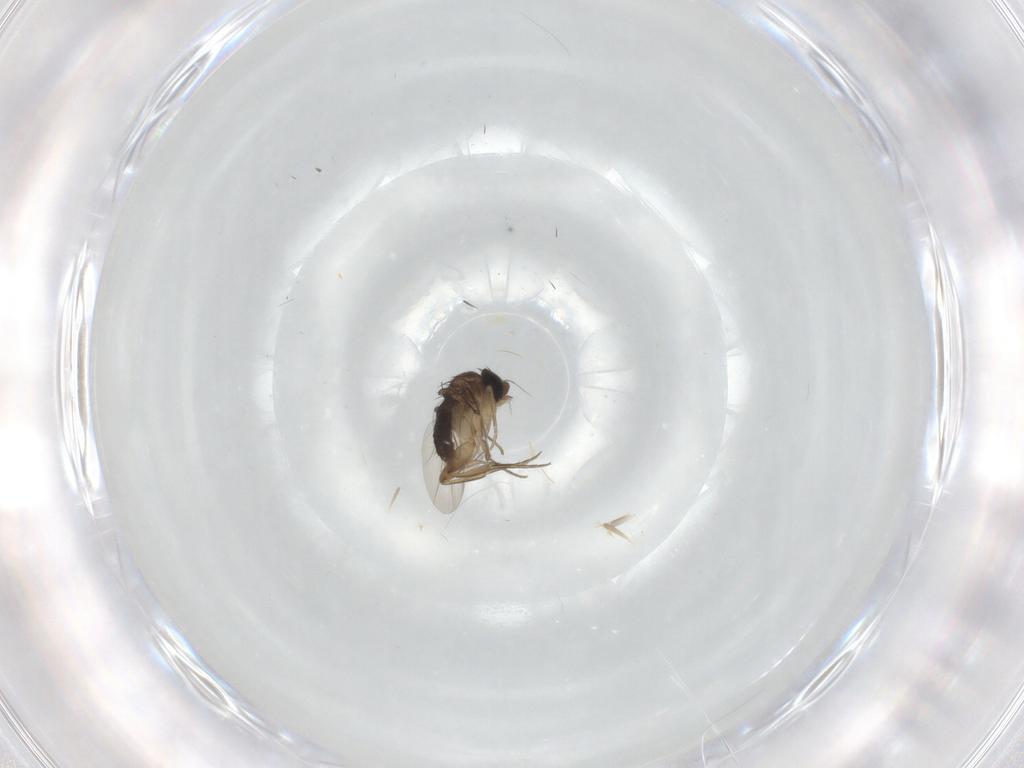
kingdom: Animalia
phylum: Arthropoda
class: Insecta
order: Diptera
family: Phoridae
